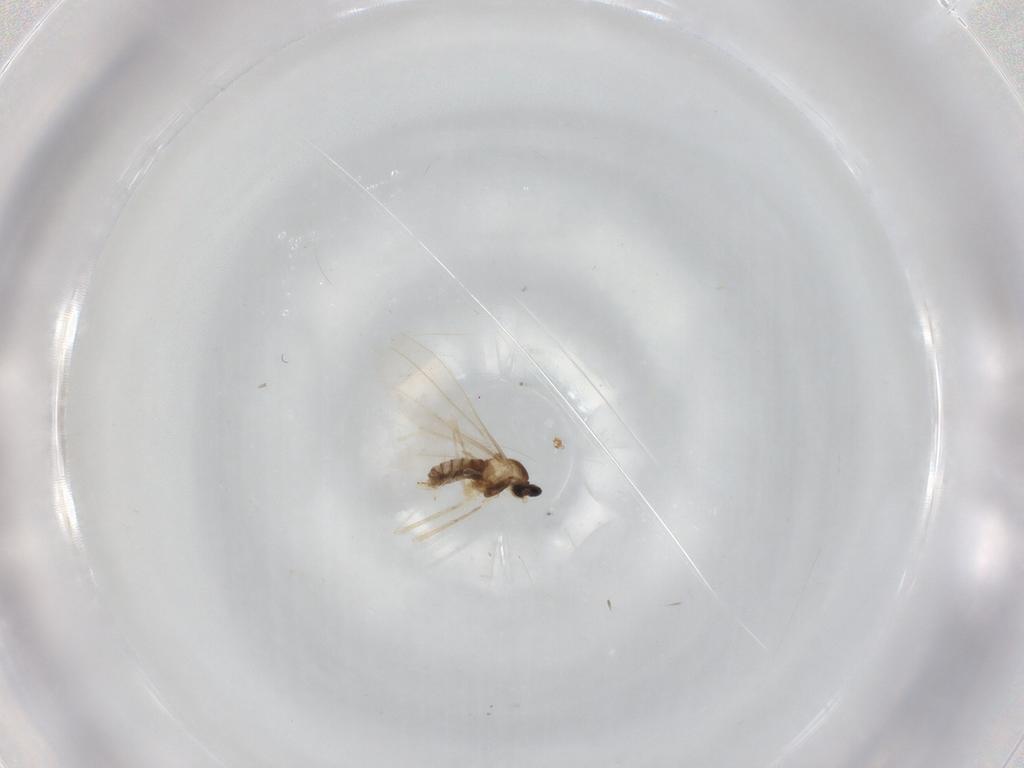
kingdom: Animalia
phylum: Arthropoda
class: Insecta
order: Diptera
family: Cecidomyiidae
